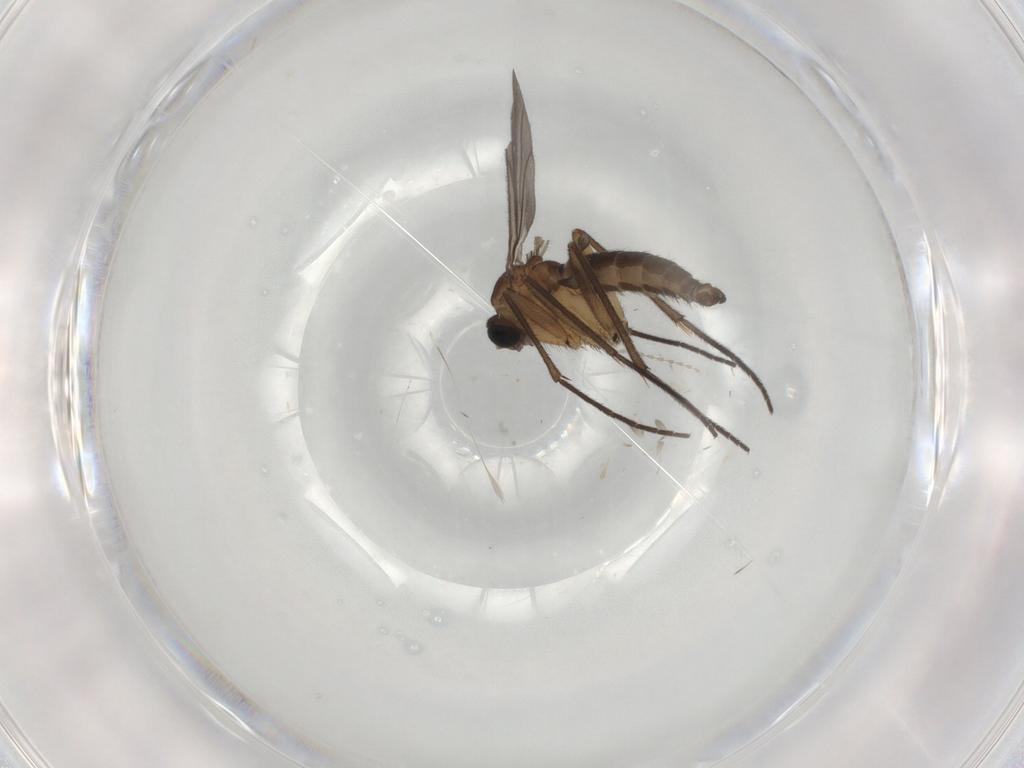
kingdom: Animalia
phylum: Arthropoda
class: Insecta
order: Diptera
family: Sciaridae
